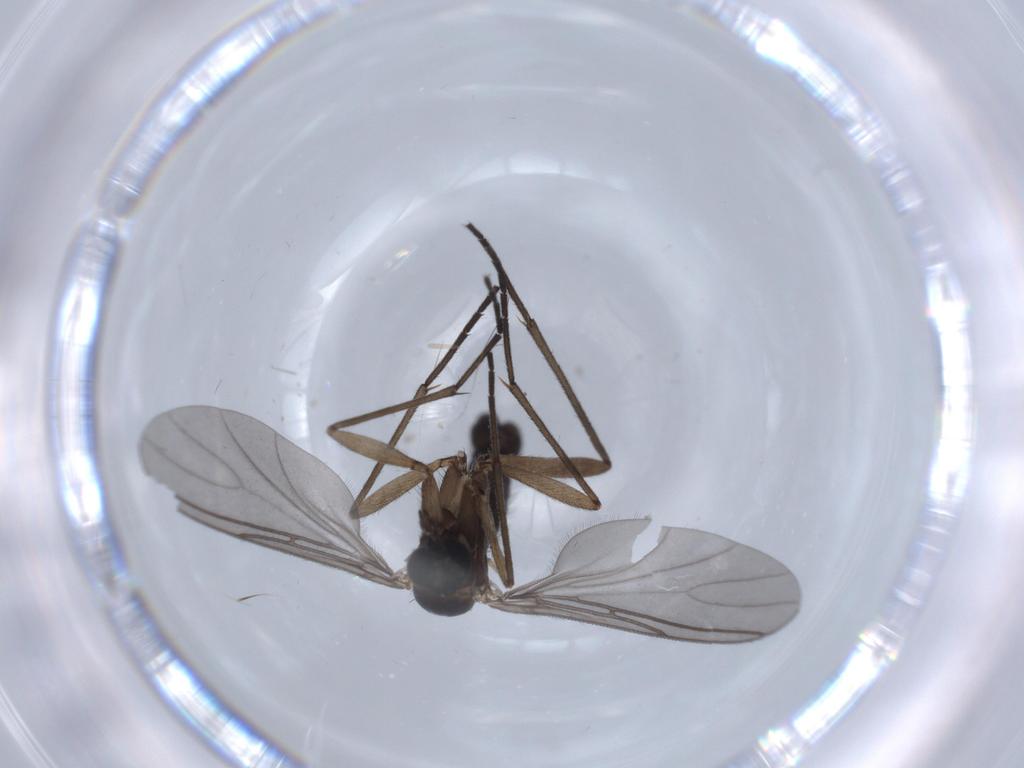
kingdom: Animalia
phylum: Arthropoda
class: Insecta
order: Diptera
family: Sciaridae
